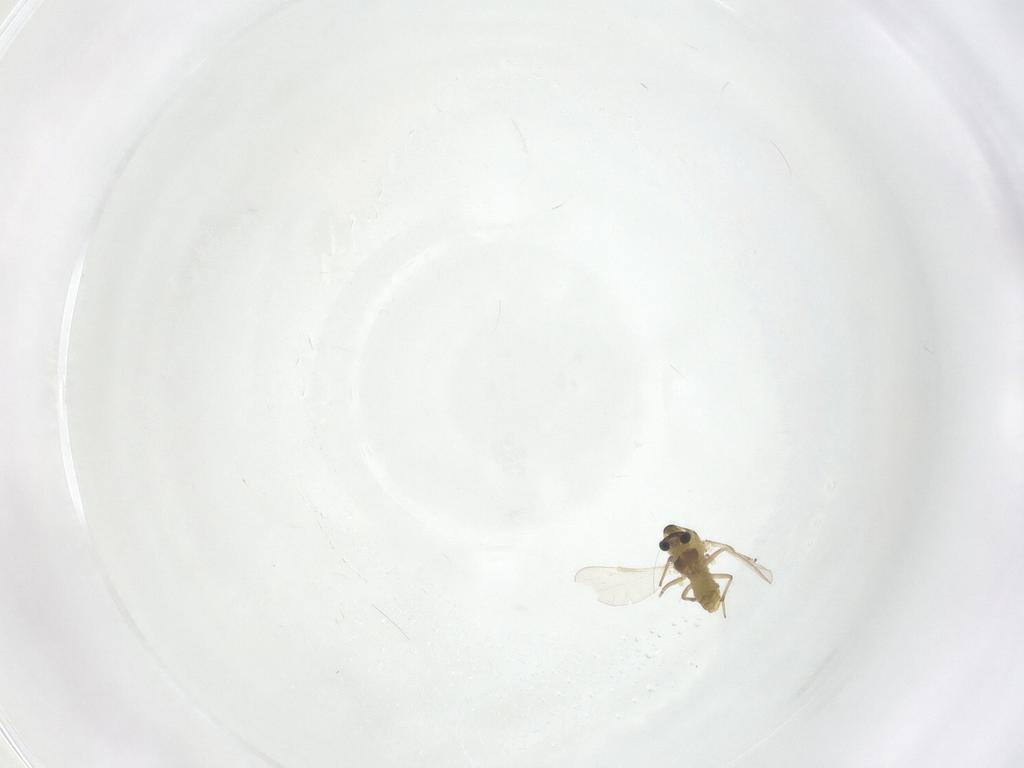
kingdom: Animalia
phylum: Arthropoda
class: Insecta
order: Diptera
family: Chironomidae
